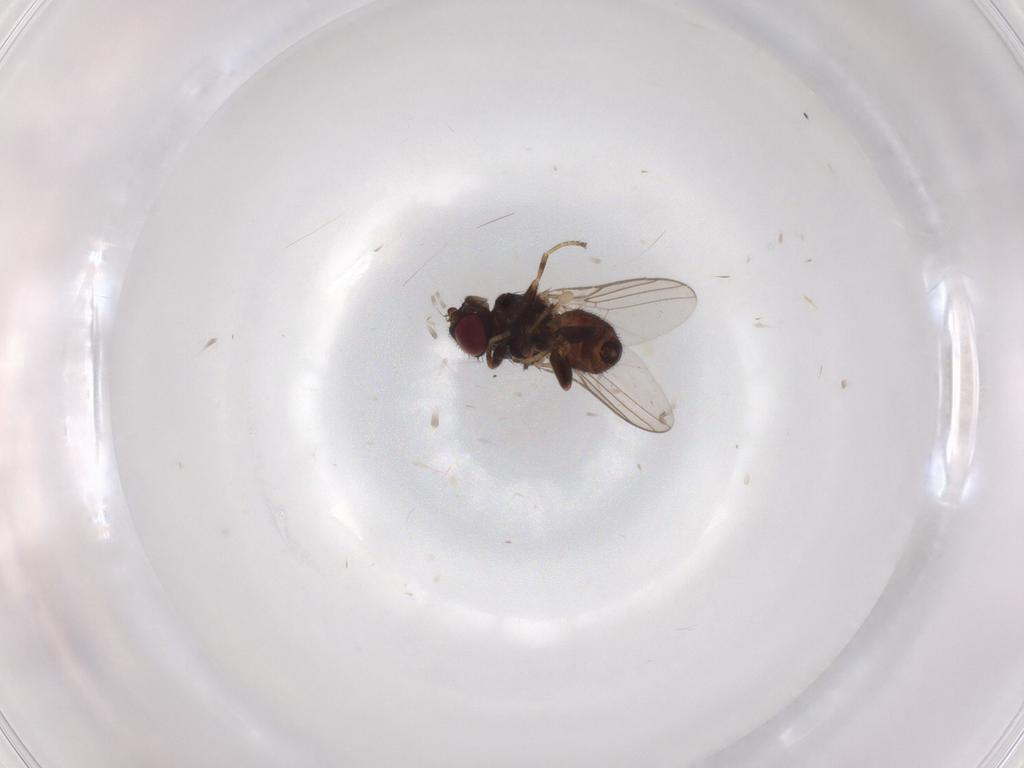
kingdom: Animalia
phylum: Arthropoda
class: Insecta
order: Diptera
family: Chloropidae
